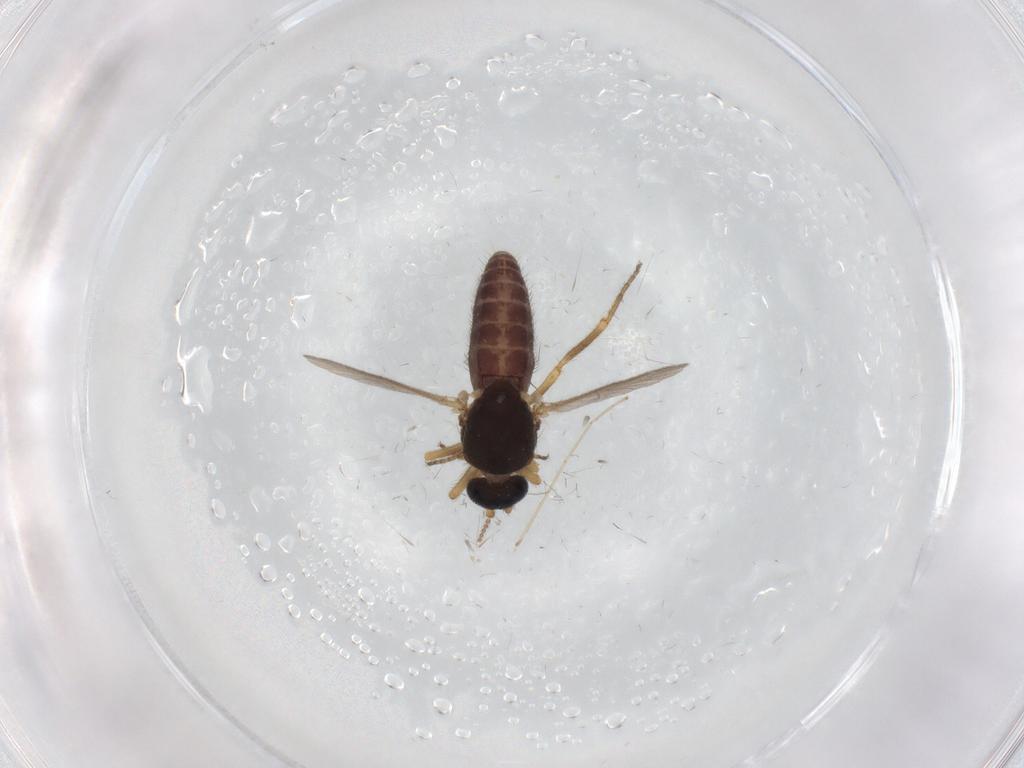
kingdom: Animalia
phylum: Arthropoda
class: Insecta
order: Diptera
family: Ceratopogonidae
